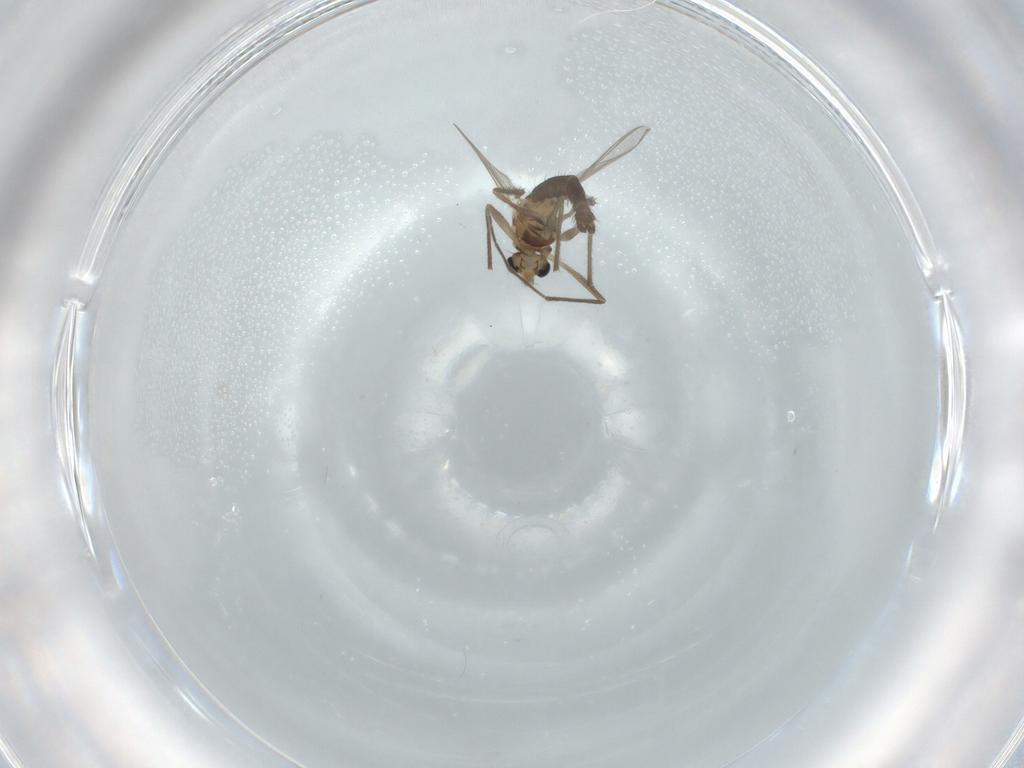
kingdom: Animalia
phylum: Arthropoda
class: Insecta
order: Diptera
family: Chironomidae
